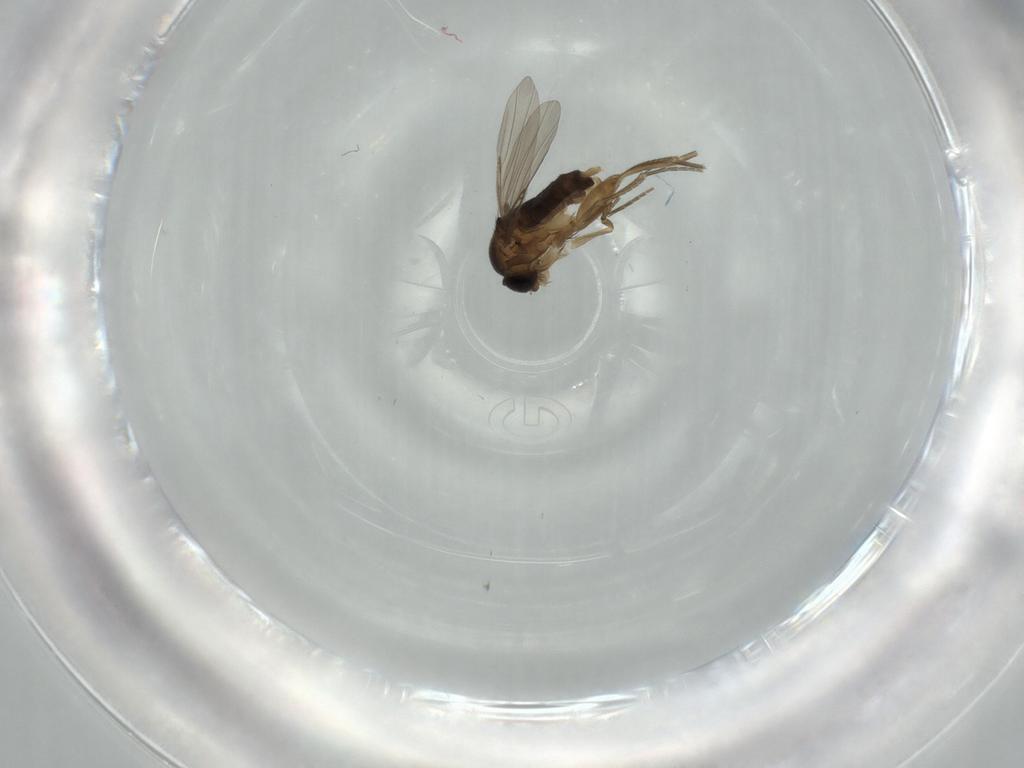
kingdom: Animalia
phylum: Arthropoda
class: Insecta
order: Diptera
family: Phoridae
